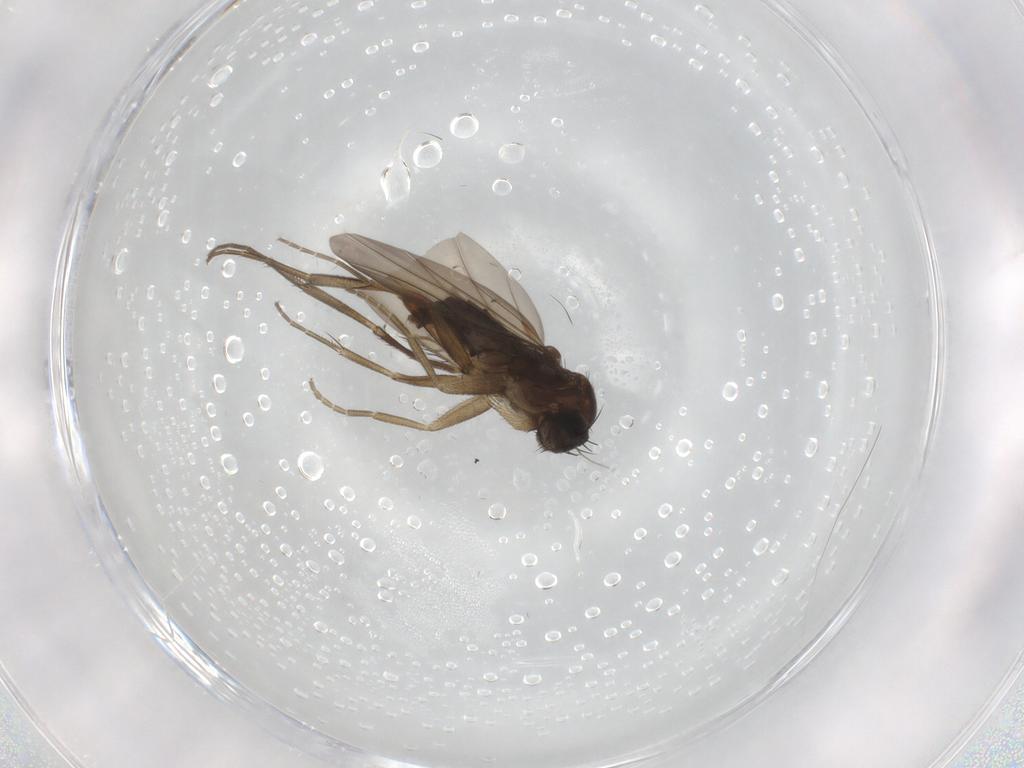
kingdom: Animalia
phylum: Arthropoda
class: Insecta
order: Diptera
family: Phoridae
